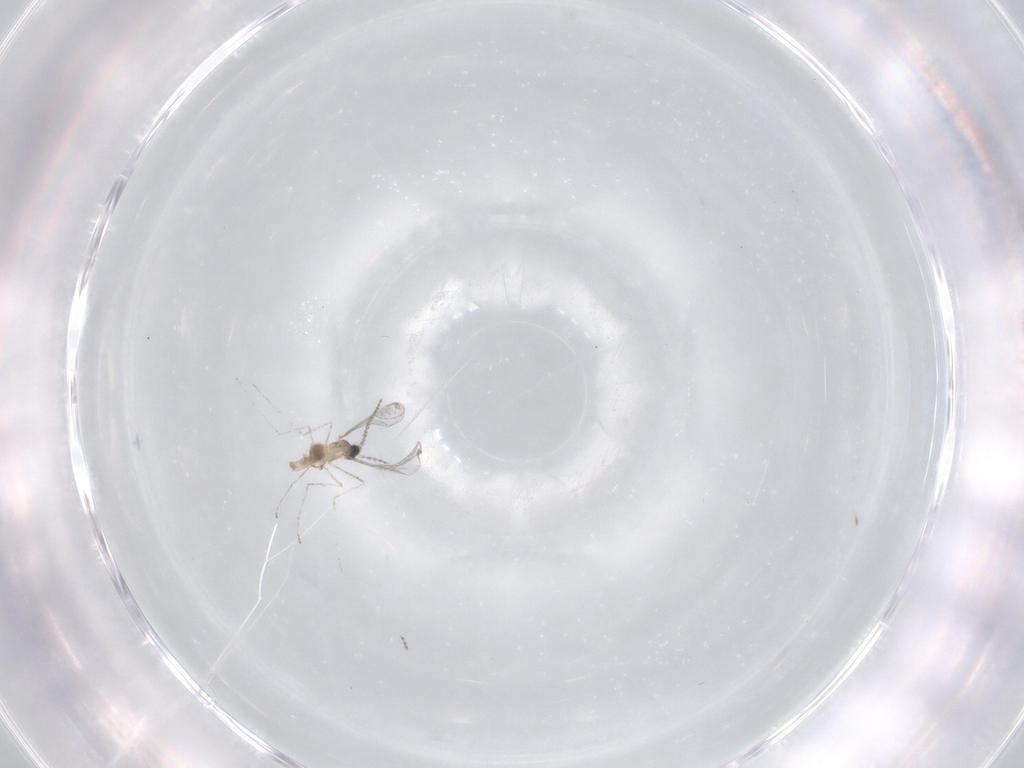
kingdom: Animalia
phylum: Arthropoda
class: Insecta
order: Diptera
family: Cecidomyiidae
